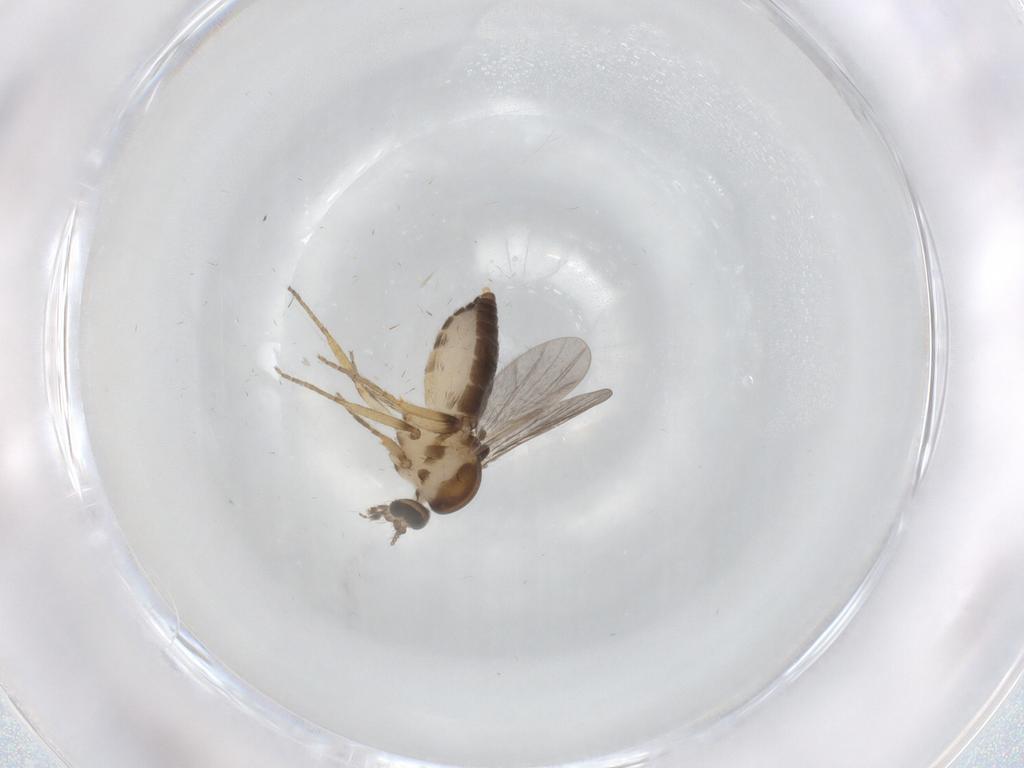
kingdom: Animalia
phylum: Arthropoda
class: Insecta
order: Diptera
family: Ceratopogonidae
